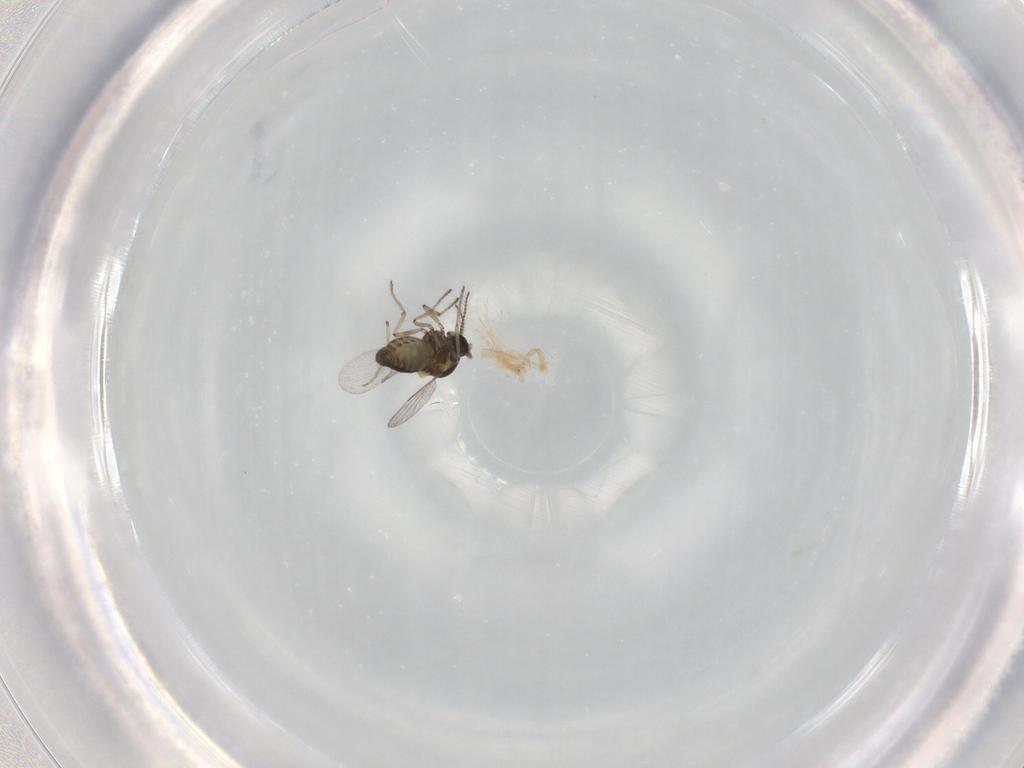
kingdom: Animalia
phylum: Arthropoda
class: Insecta
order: Diptera
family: Ceratopogonidae
